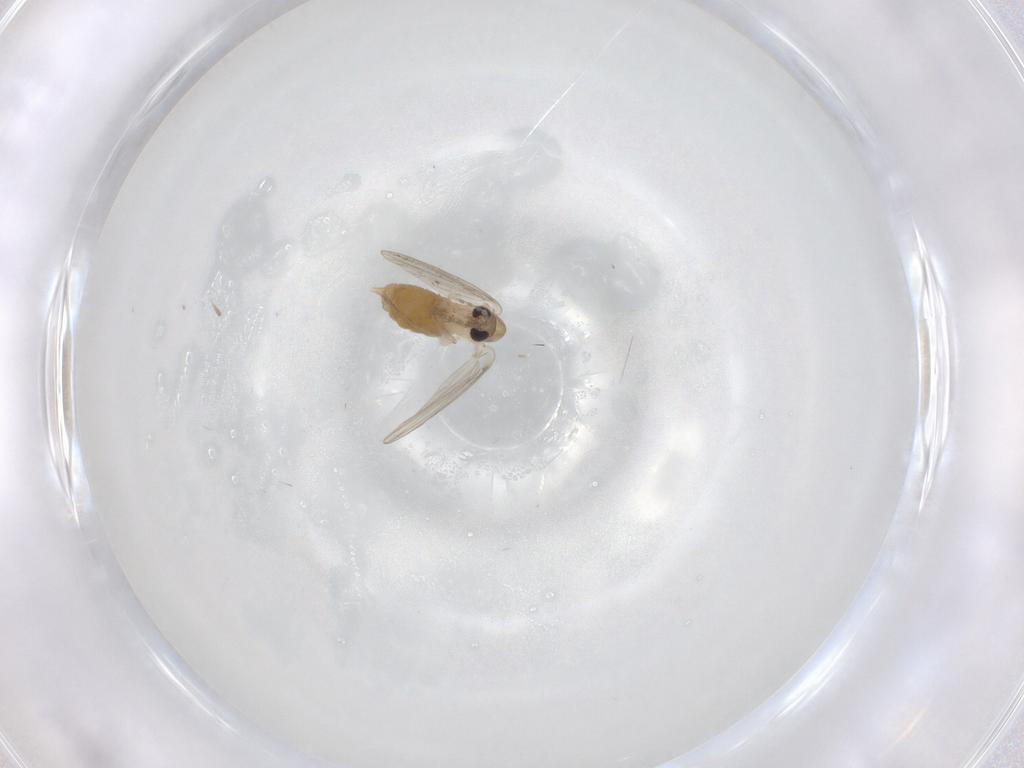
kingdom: Animalia
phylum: Arthropoda
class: Insecta
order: Diptera
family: Psychodidae
